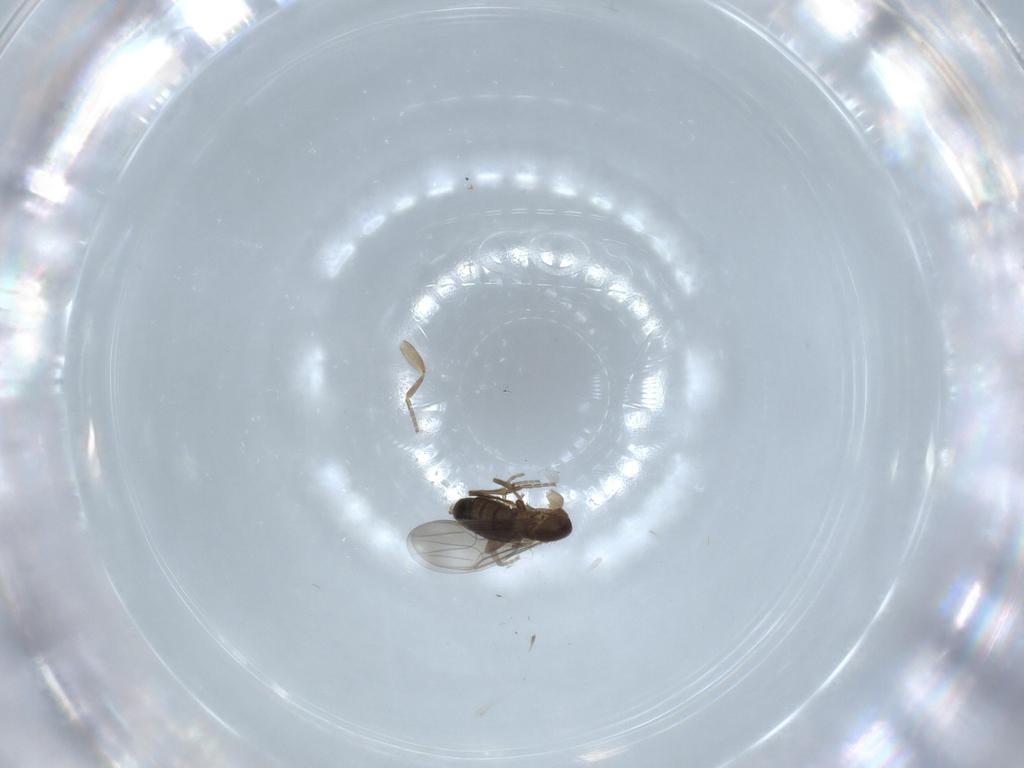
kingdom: Animalia
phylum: Arthropoda
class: Insecta
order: Diptera
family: Phoridae
